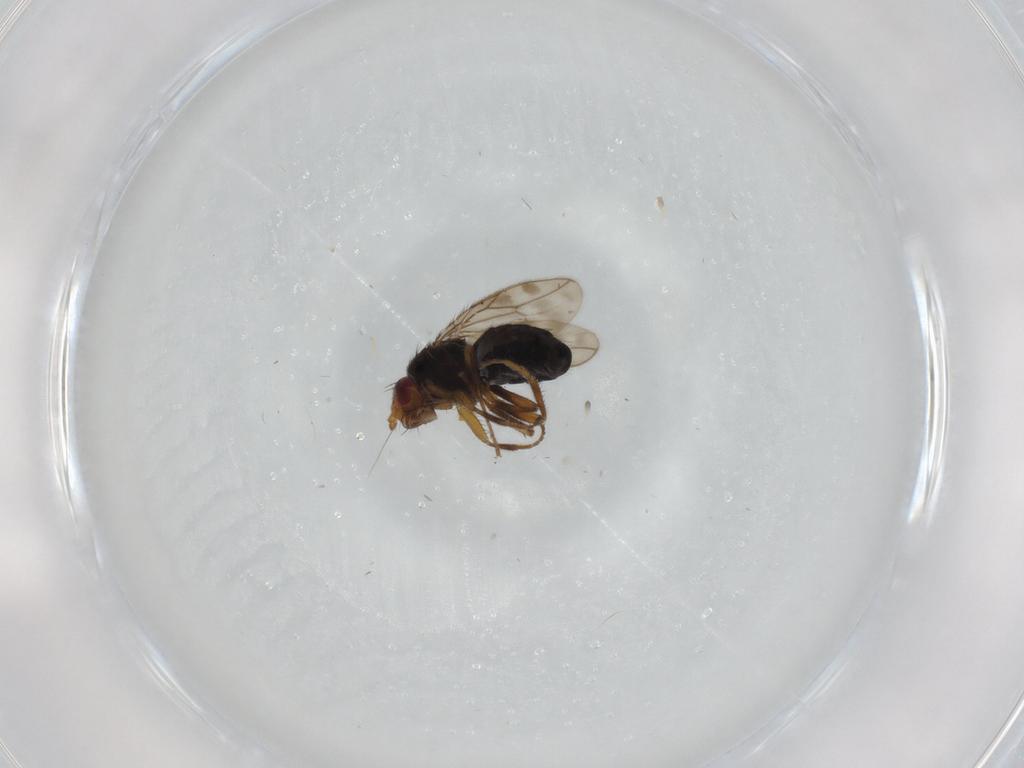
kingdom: Animalia
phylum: Arthropoda
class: Insecta
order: Diptera
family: Sphaeroceridae
